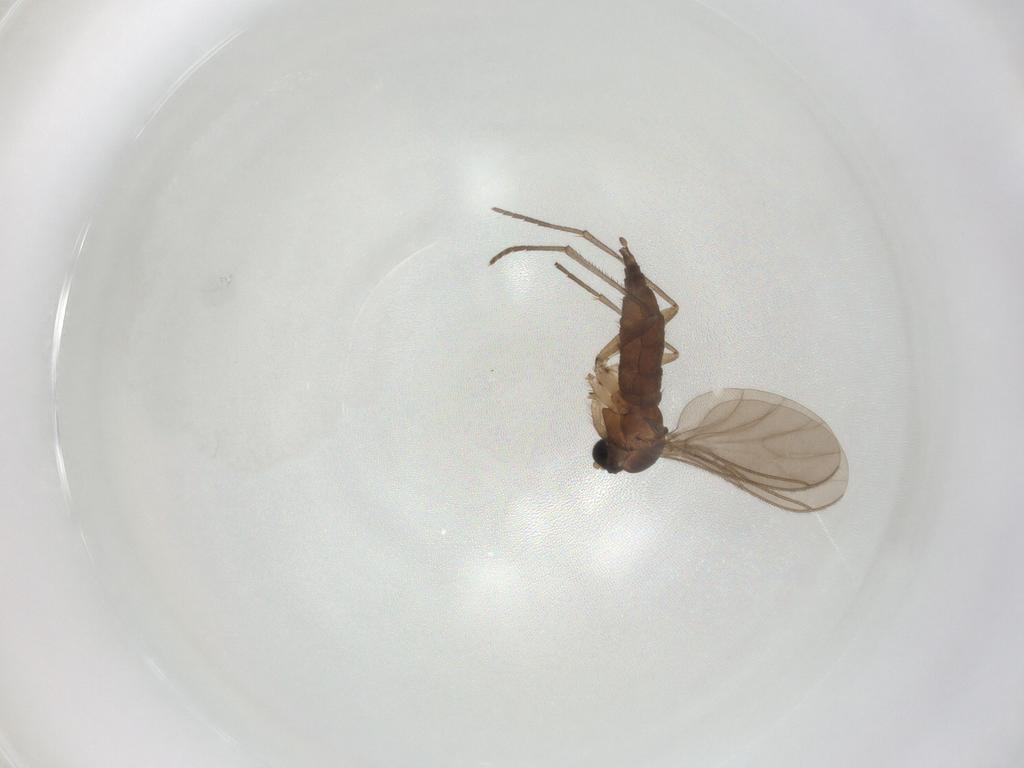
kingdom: Animalia
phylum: Arthropoda
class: Insecta
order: Diptera
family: Sciaridae
